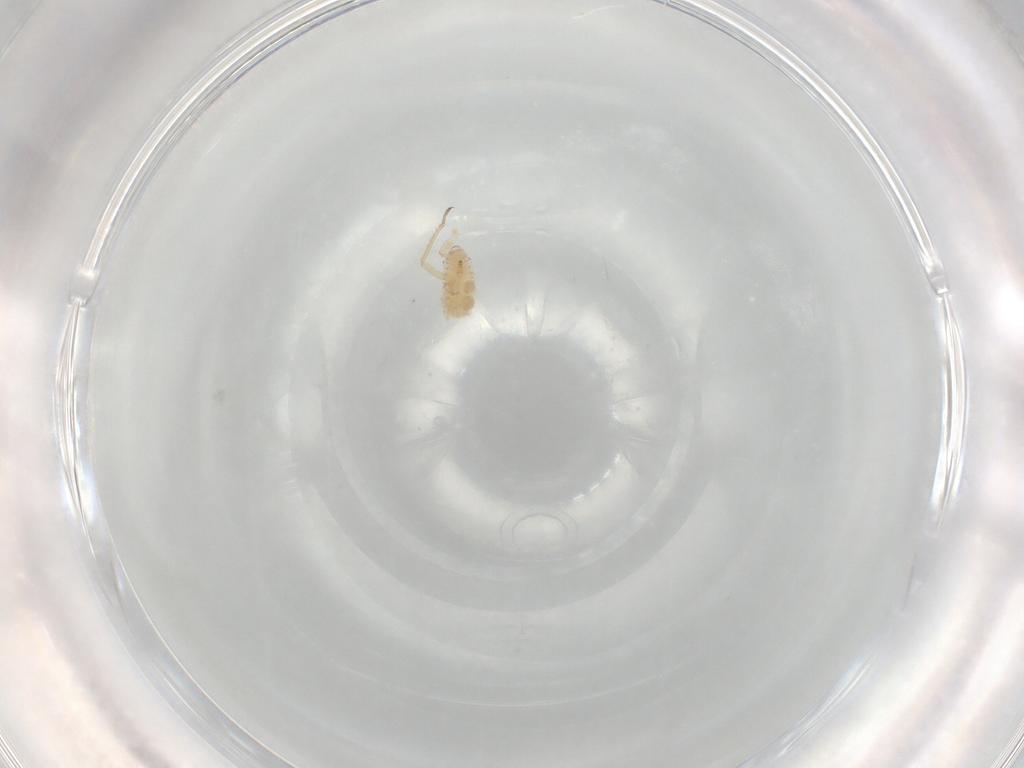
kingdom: Animalia
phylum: Arthropoda
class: Insecta
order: Hemiptera
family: Aphididae
